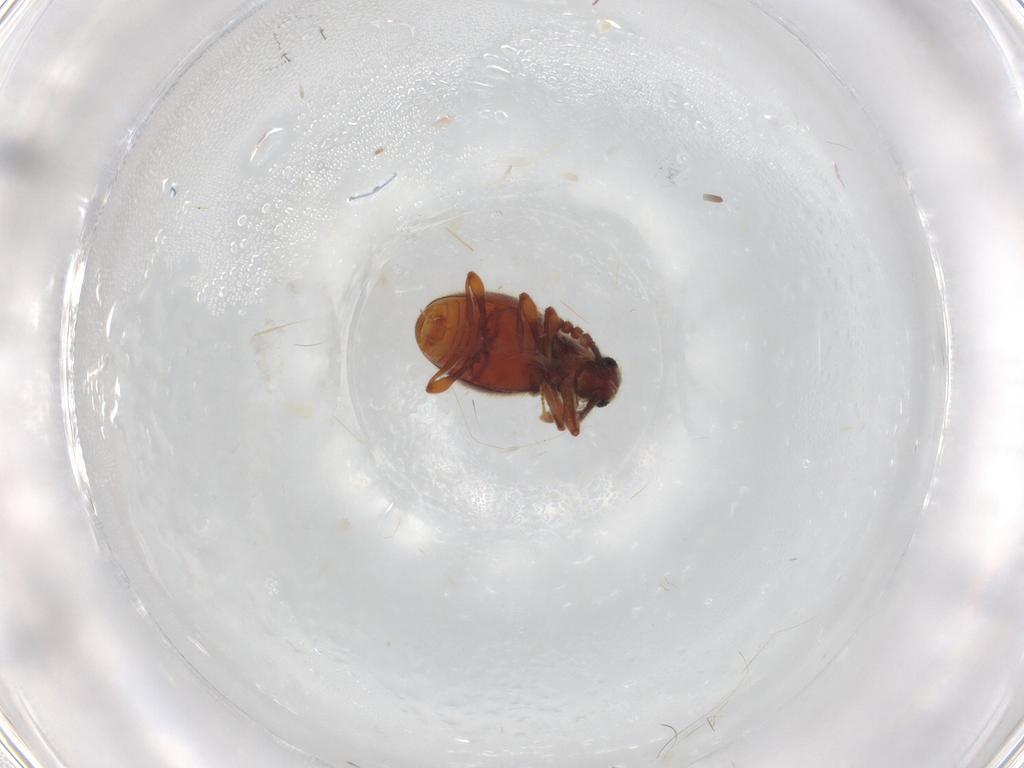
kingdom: Animalia
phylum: Arthropoda
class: Insecta
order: Coleoptera
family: Staphylinidae
